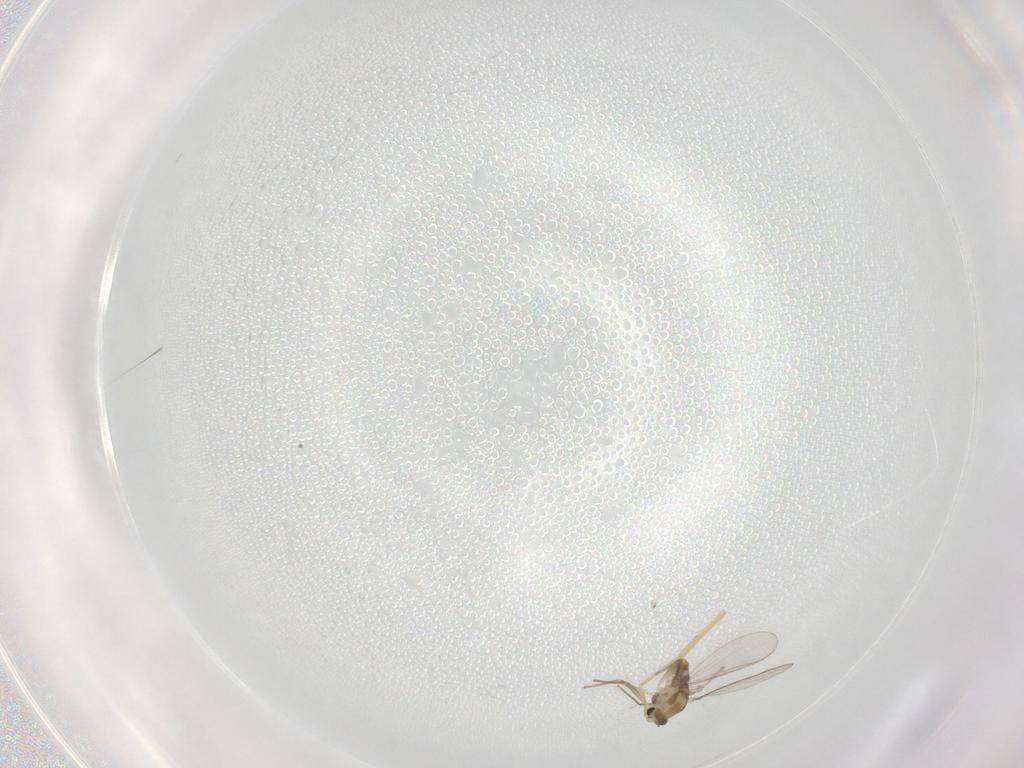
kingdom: Animalia
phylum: Arthropoda
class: Insecta
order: Diptera
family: Chironomidae
